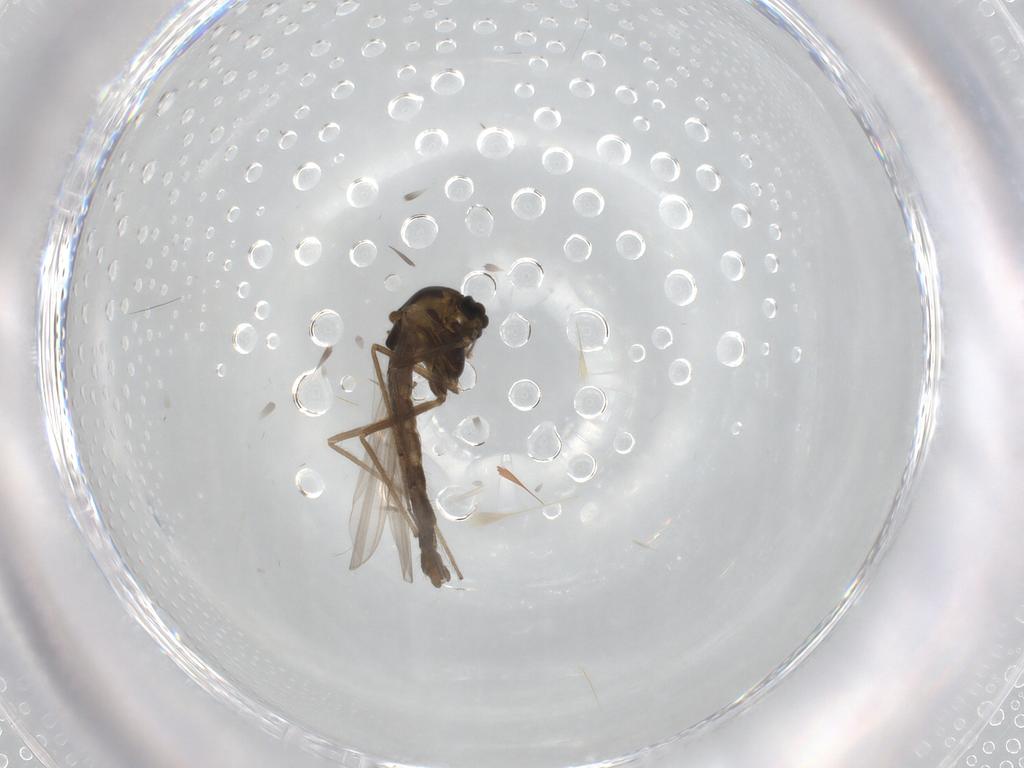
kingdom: Animalia
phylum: Arthropoda
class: Insecta
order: Diptera
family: Chironomidae
